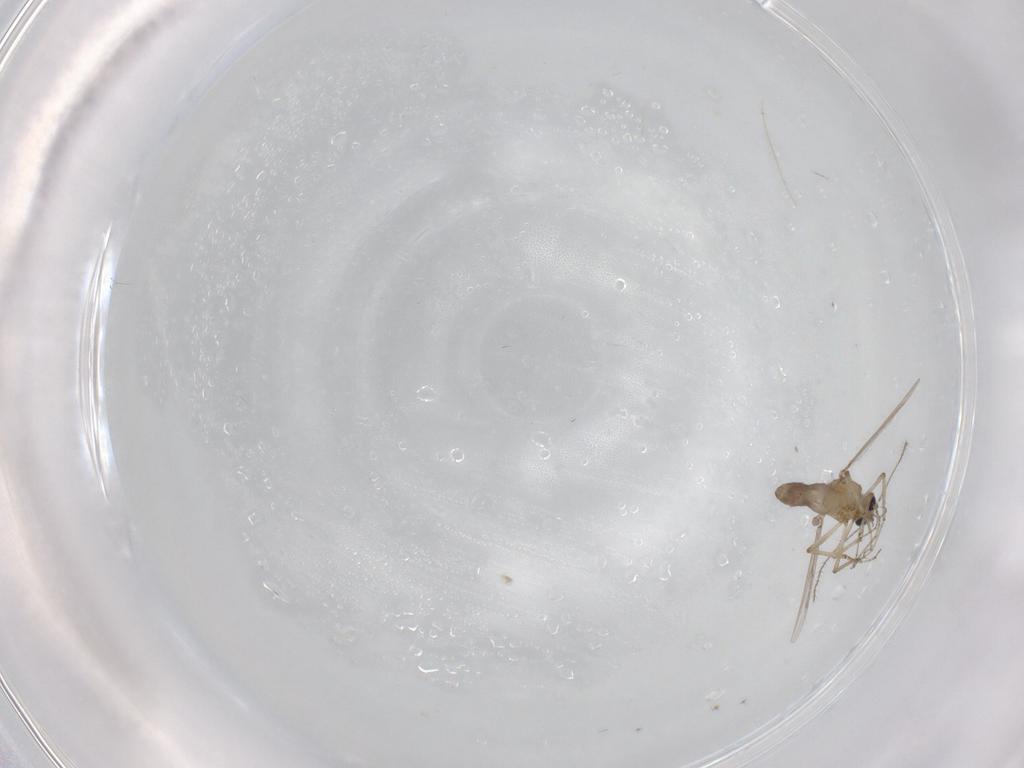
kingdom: Animalia
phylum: Arthropoda
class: Insecta
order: Diptera
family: Ceratopogonidae
